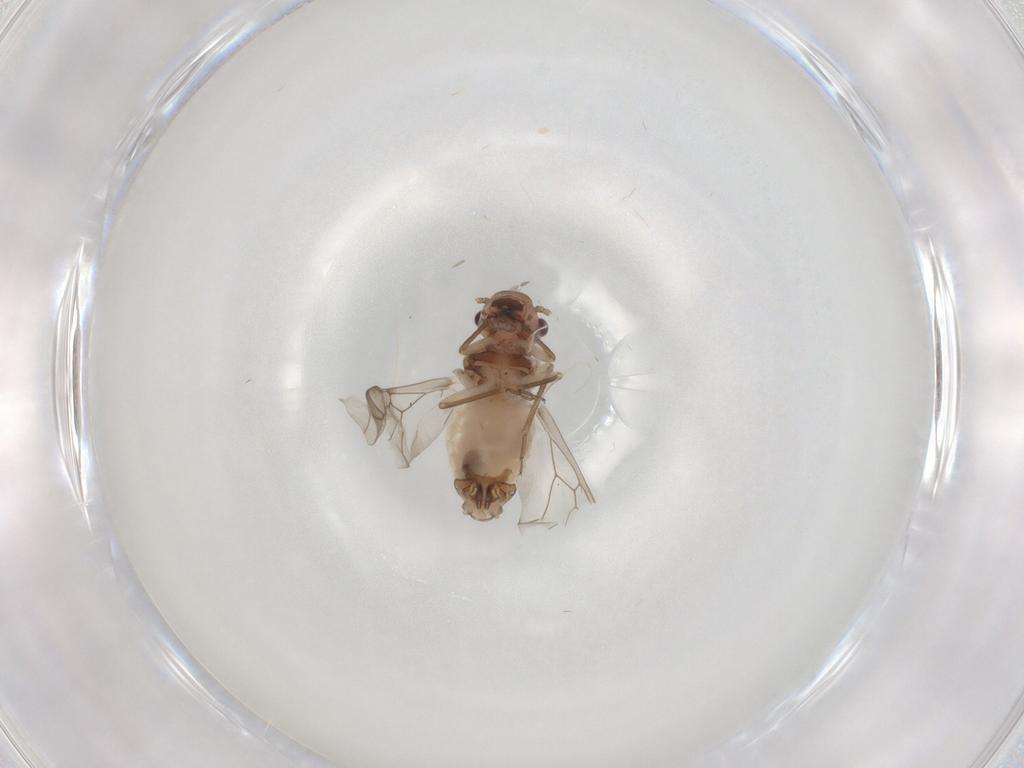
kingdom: Animalia
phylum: Arthropoda
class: Insecta
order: Psocodea
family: Peripsocidae
